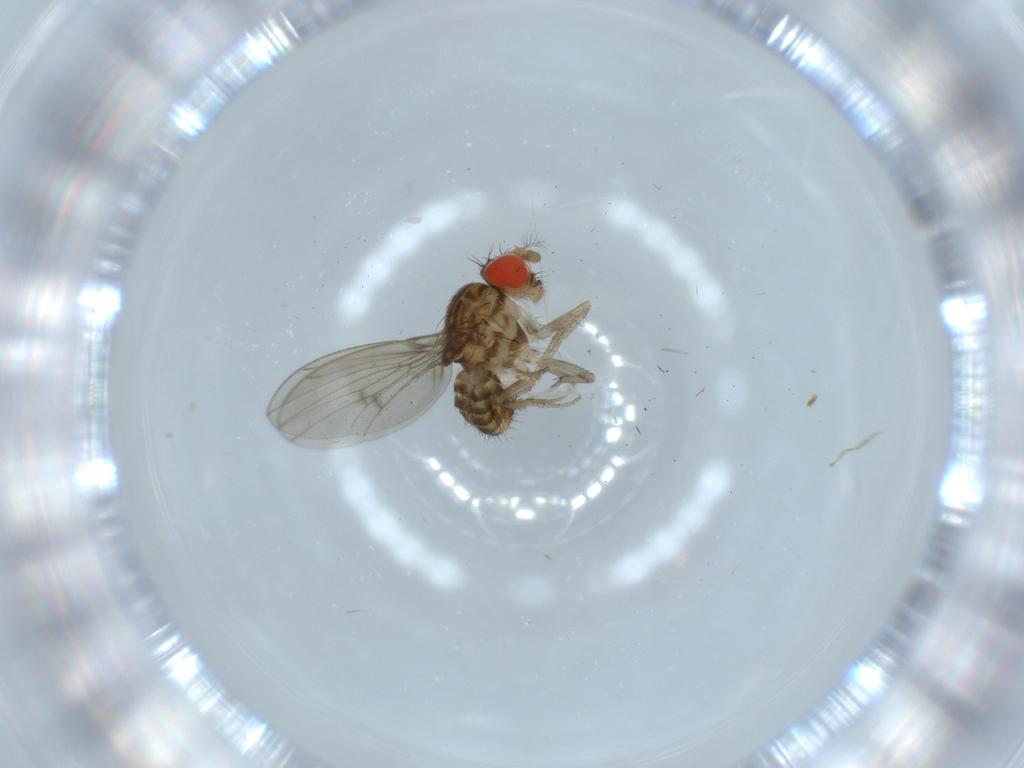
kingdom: Animalia
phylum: Arthropoda
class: Insecta
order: Diptera
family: Drosophilidae
